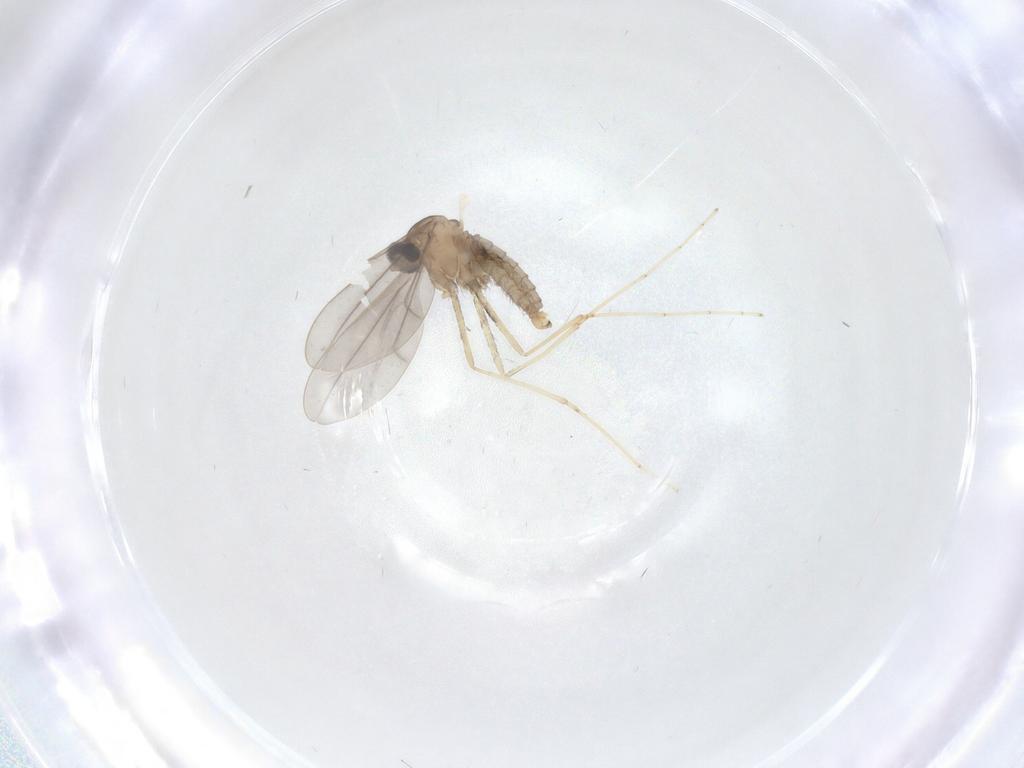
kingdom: Animalia
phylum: Arthropoda
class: Insecta
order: Diptera
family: Cecidomyiidae
